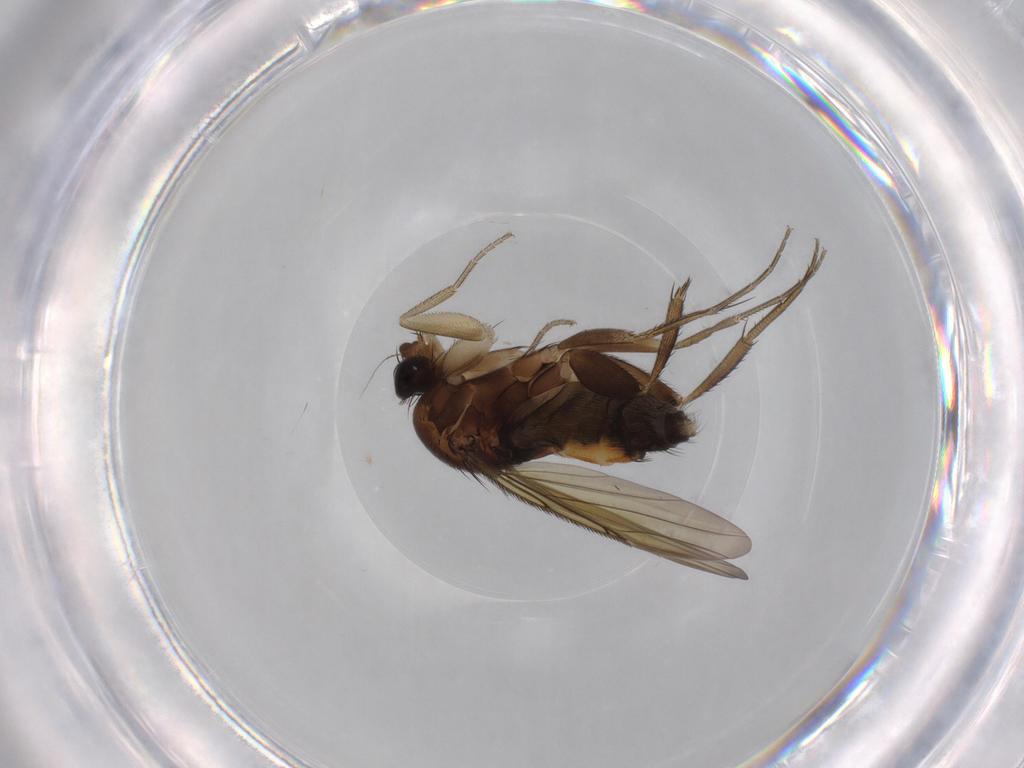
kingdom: Animalia
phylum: Arthropoda
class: Insecta
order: Diptera
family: Phoridae
